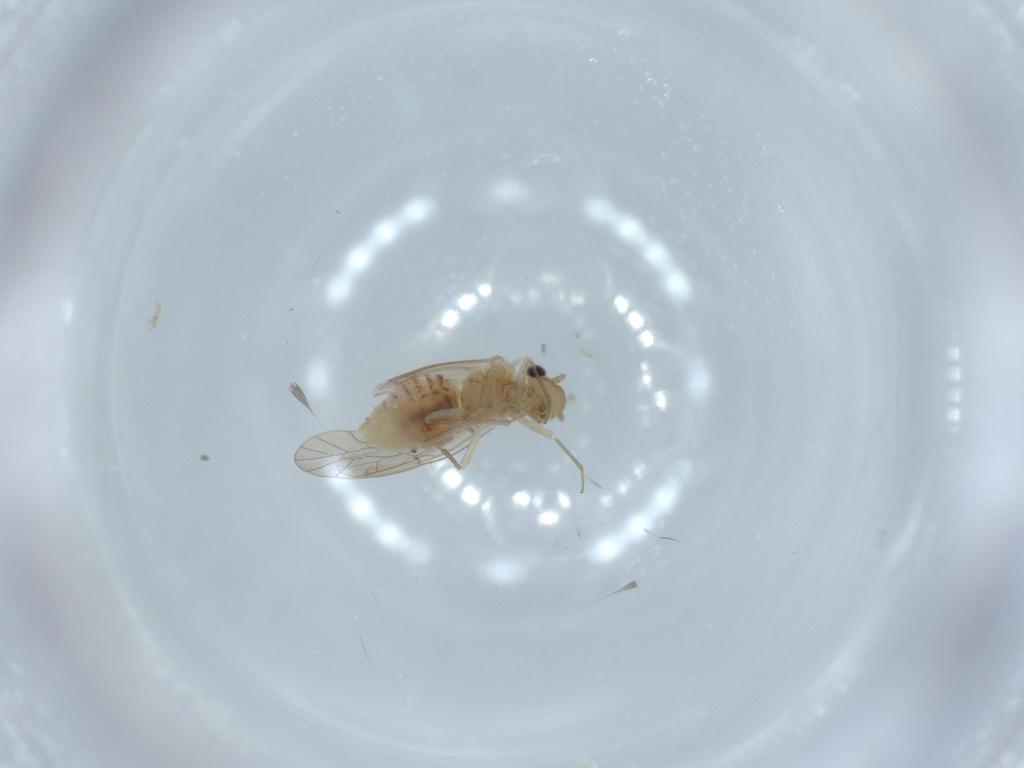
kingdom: Animalia
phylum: Arthropoda
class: Insecta
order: Psocodea
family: Lachesillidae
